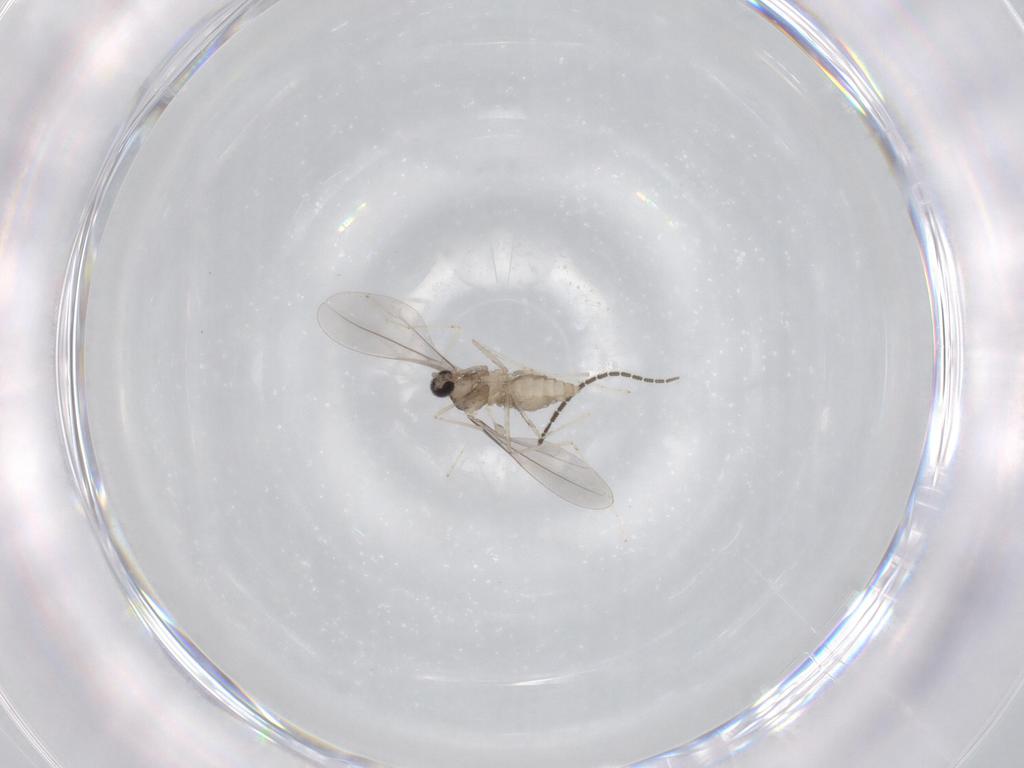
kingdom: Animalia
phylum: Arthropoda
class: Insecta
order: Diptera
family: Cecidomyiidae
